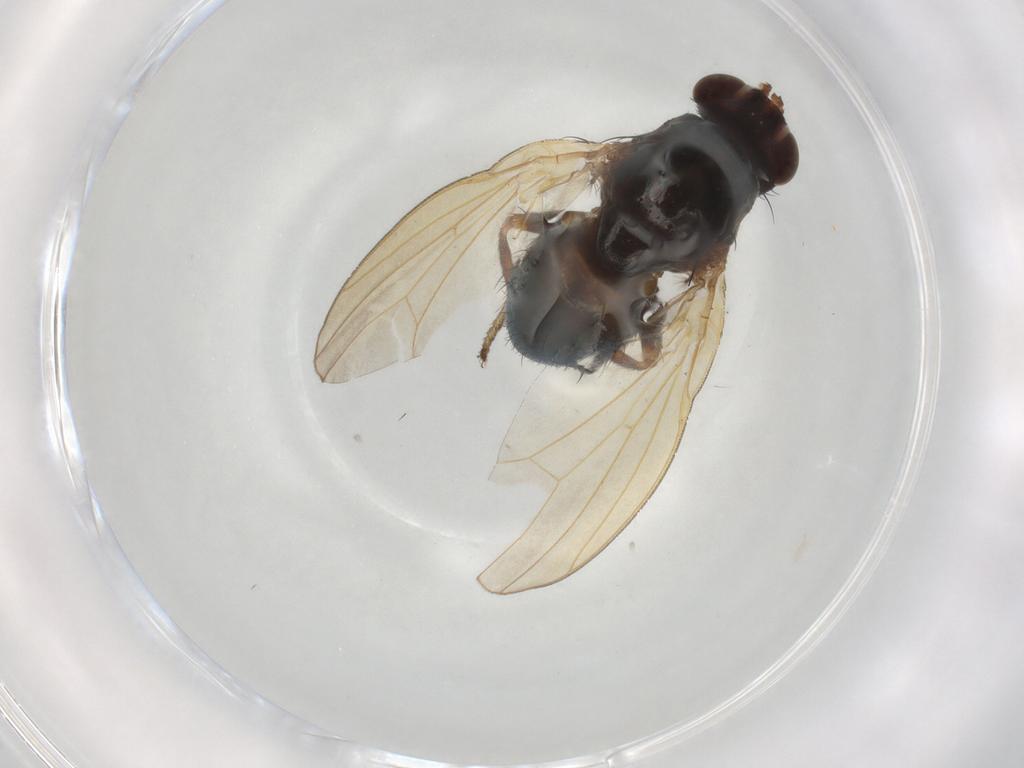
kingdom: Animalia
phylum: Arthropoda
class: Insecta
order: Diptera
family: Lauxaniidae
